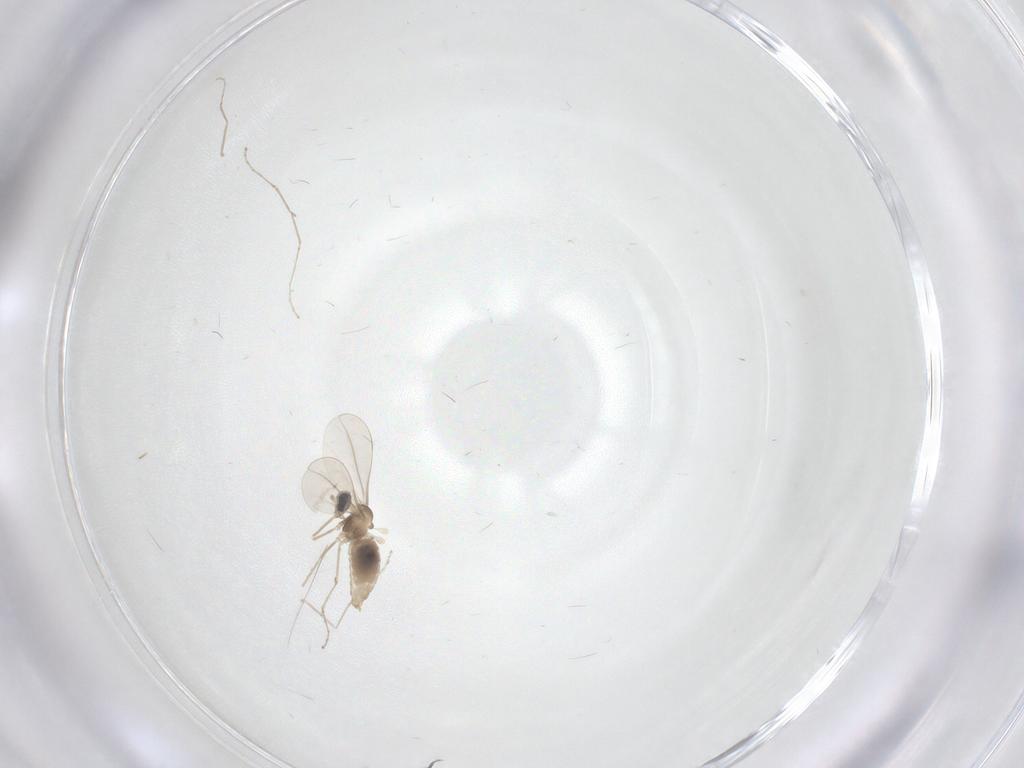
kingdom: Animalia
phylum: Arthropoda
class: Insecta
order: Diptera
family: Cecidomyiidae
